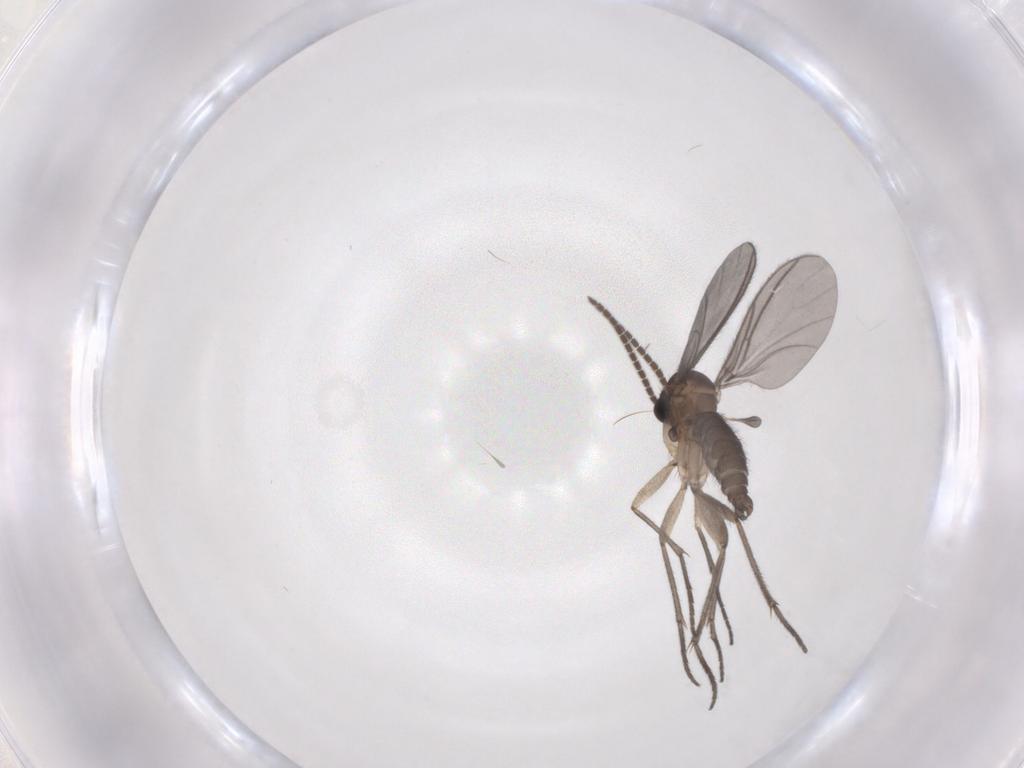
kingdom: Animalia
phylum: Arthropoda
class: Insecta
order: Diptera
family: Sciaridae
